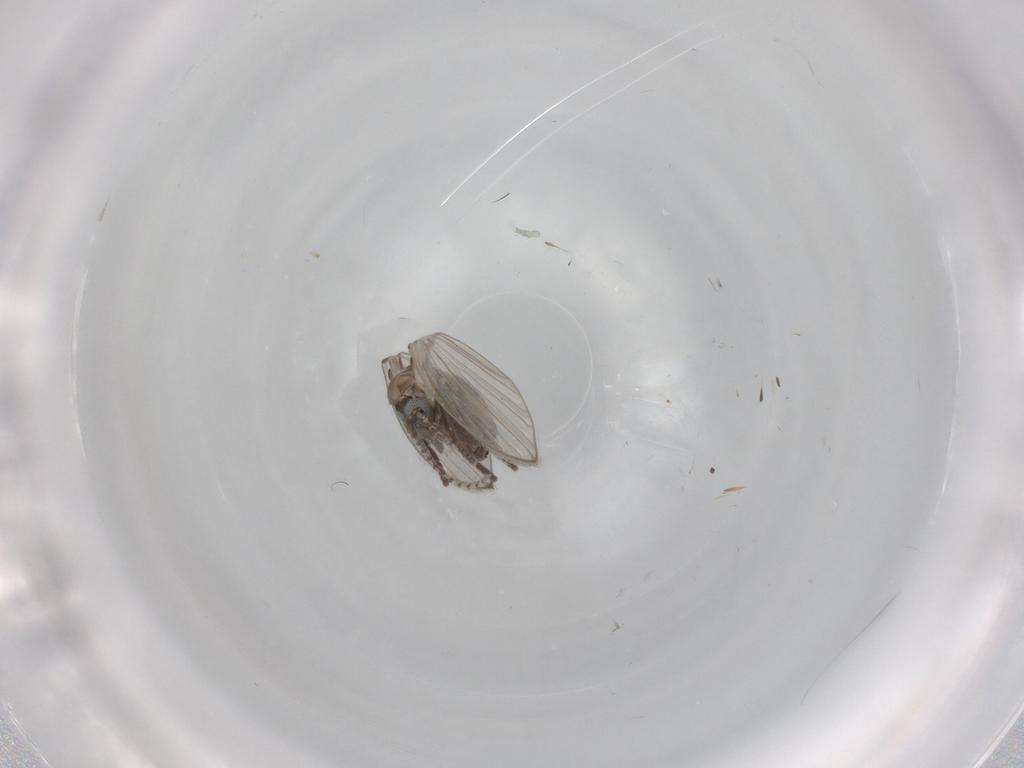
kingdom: Animalia
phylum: Arthropoda
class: Insecta
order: Diptera
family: Psychodidae
